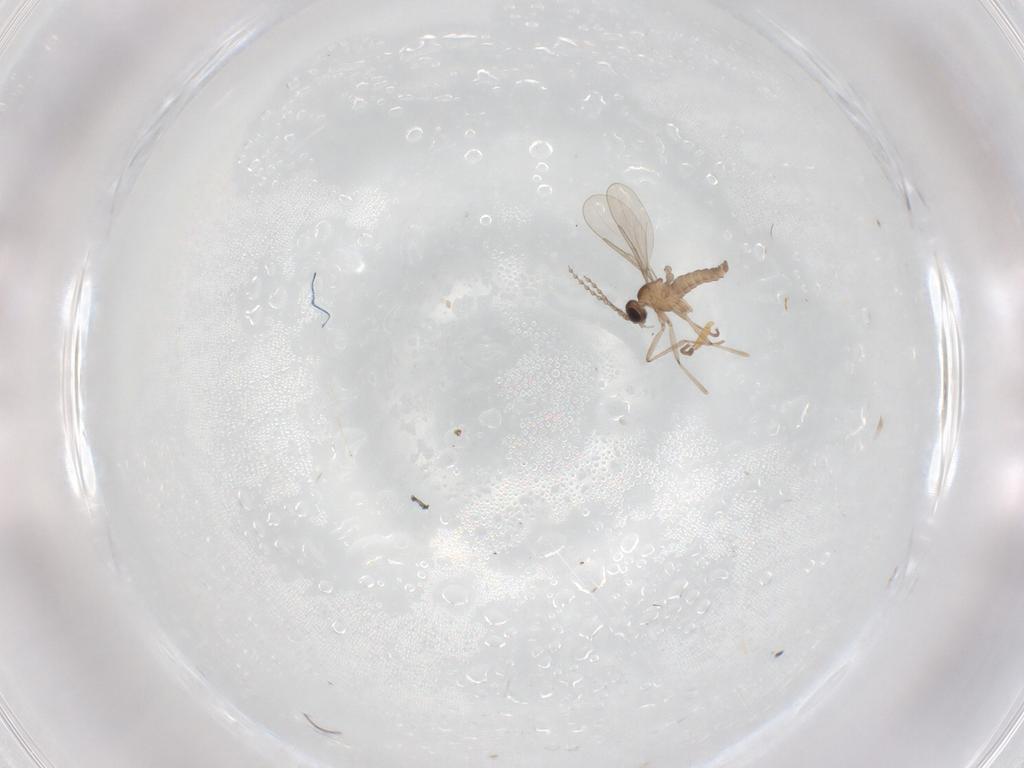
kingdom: Animalia
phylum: Arthropoda
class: Insecta
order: Diptera
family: Cecidomyiidae
